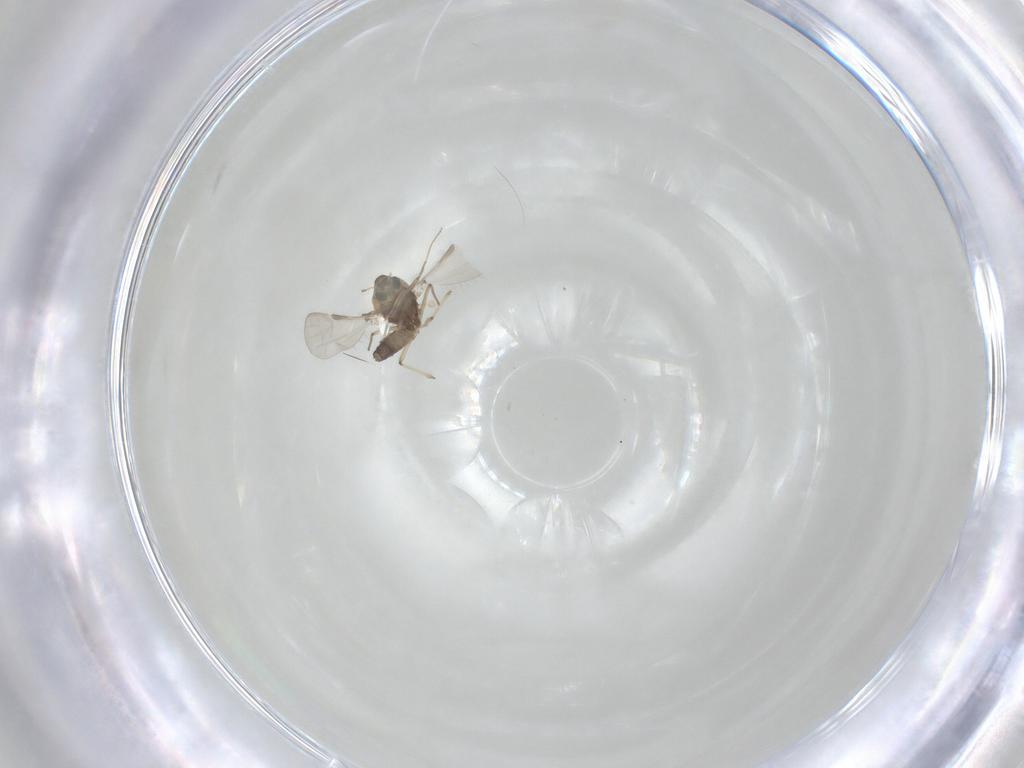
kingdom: Animalia
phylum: Arthropoda
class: Insecta
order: Diptera
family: Chironomidae
